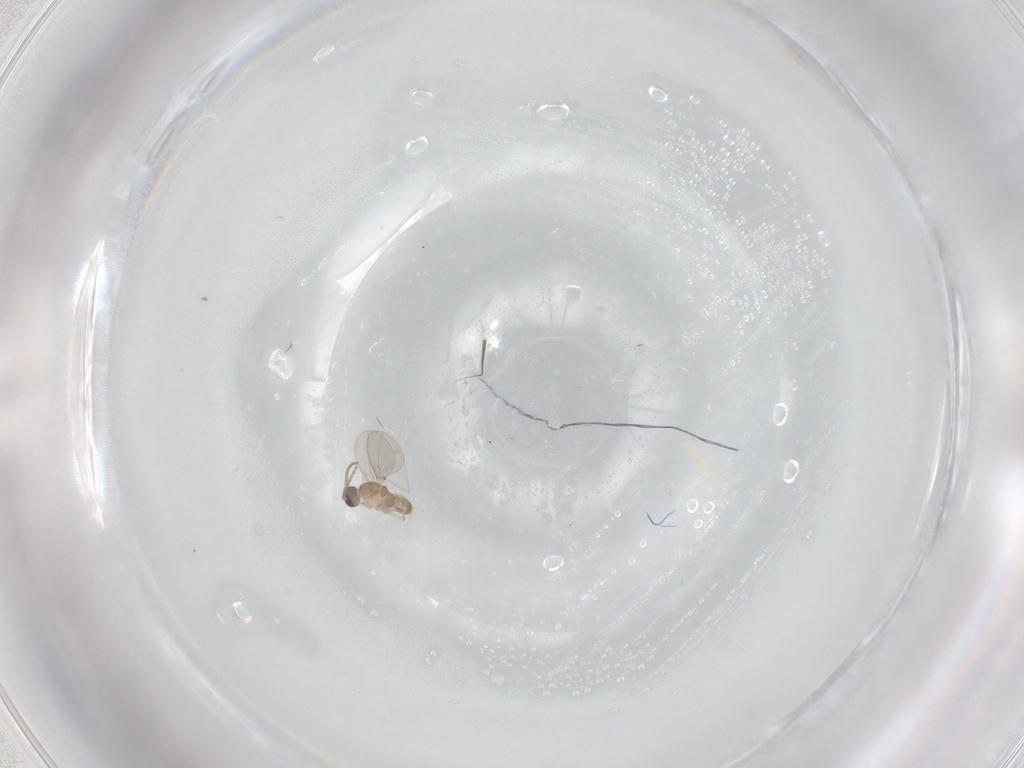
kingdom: Animalia
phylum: Arthropoda
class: Insecta
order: Diptera
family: Cecidomyiidae
